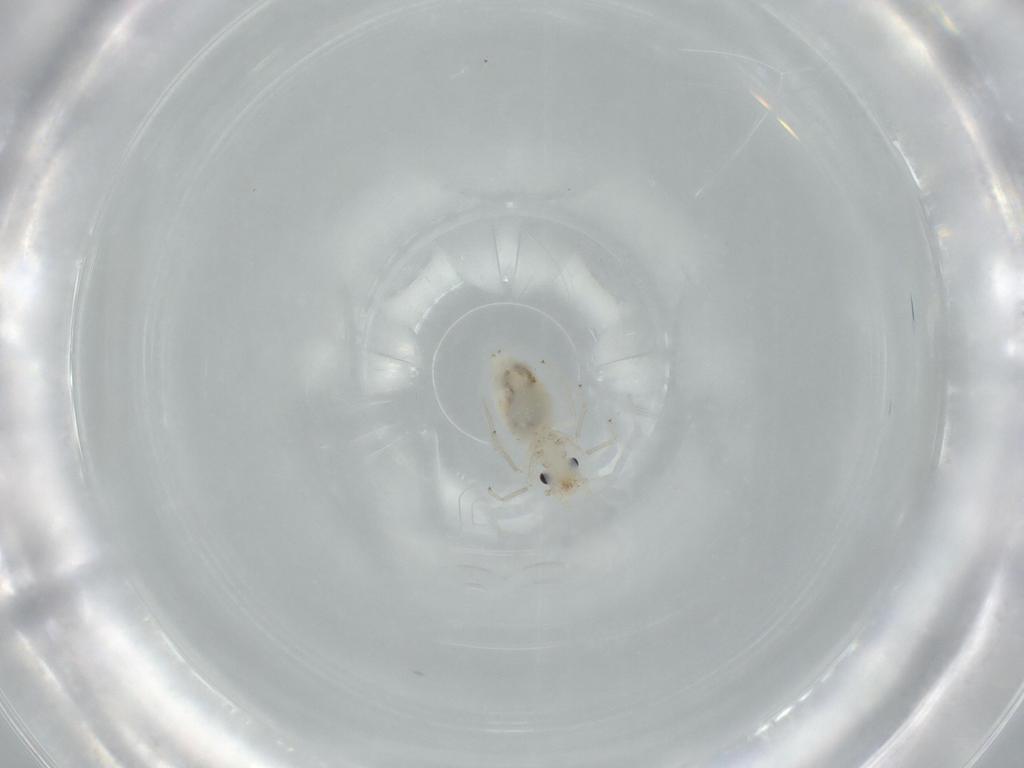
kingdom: Animalia
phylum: Arthropoda
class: Insecta
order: Psocodea
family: Caeciliusidae
